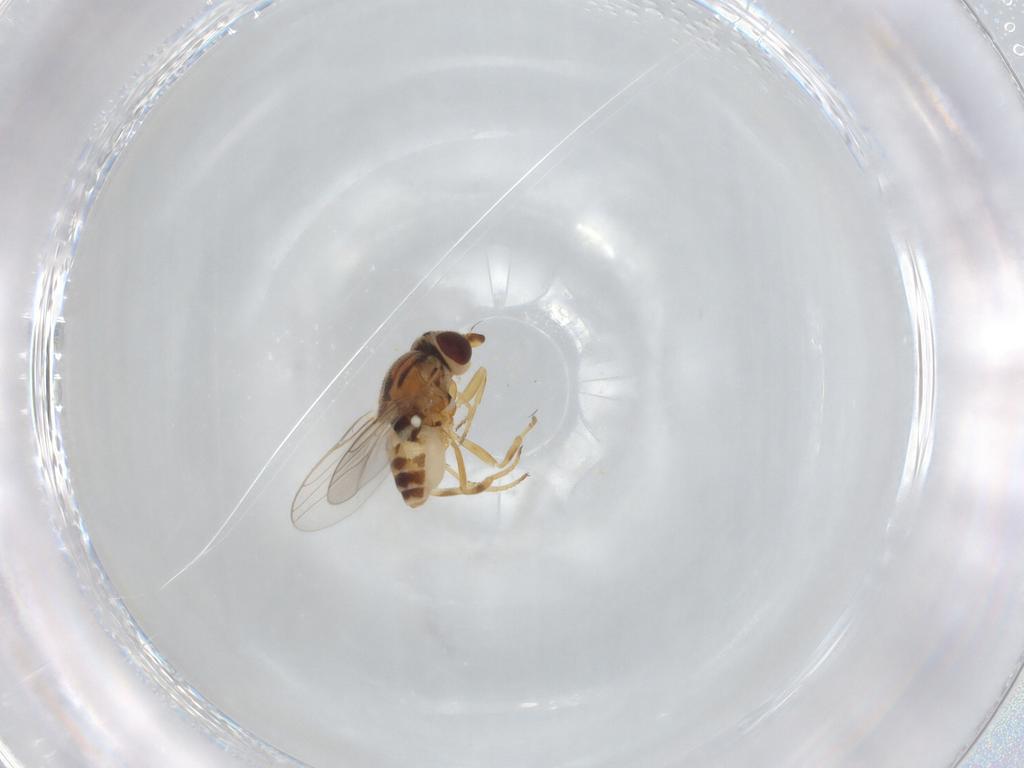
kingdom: Animalia
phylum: Arthropoda
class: Insecta
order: Diptera
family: Chloropidae
